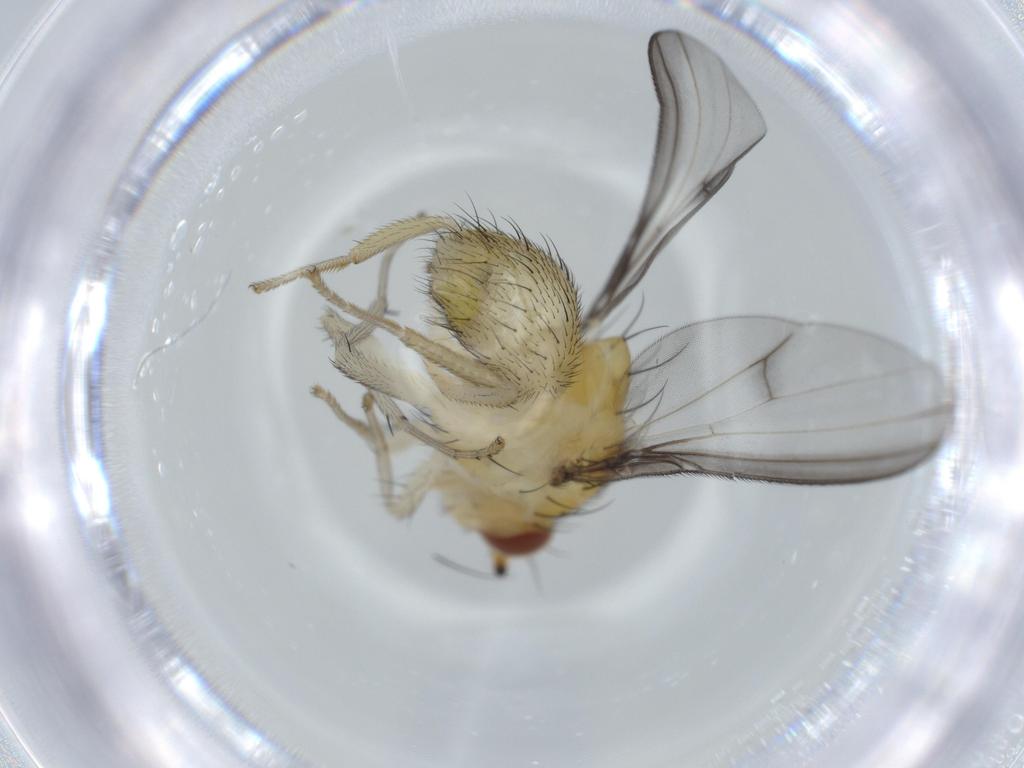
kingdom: Animalia
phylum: Arthropoda
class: Insecta
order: Diptera
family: Lauxaniidae
